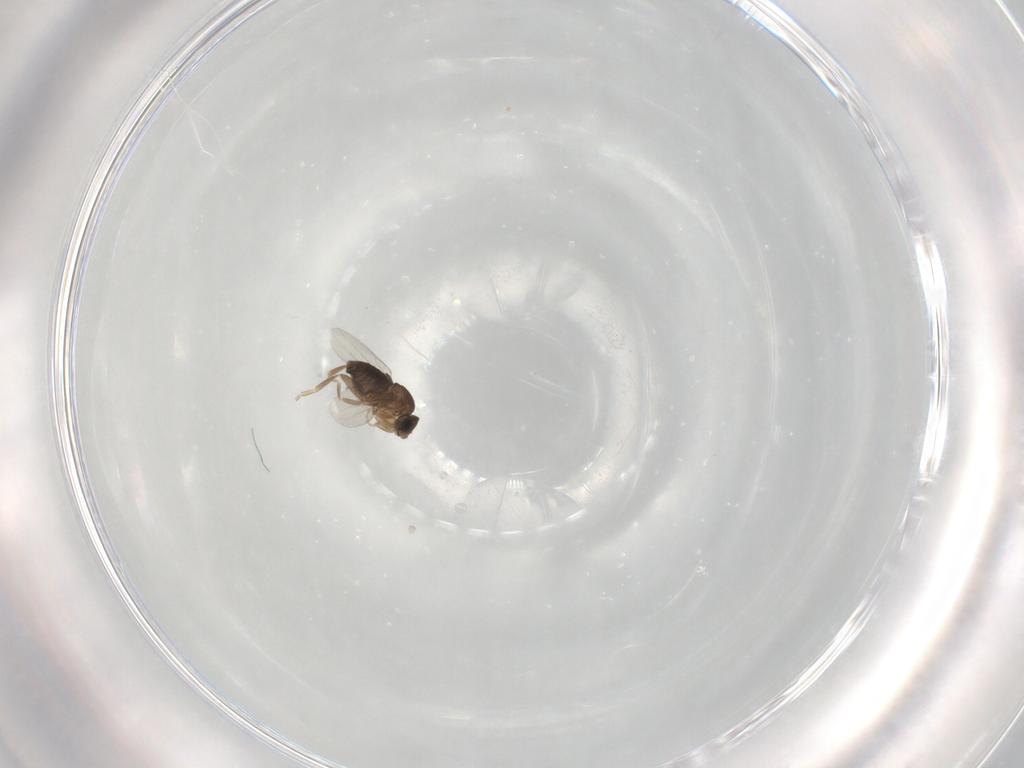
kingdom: Animalia
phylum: Arthropoda
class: Insecta
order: Diptera
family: Phoridae
